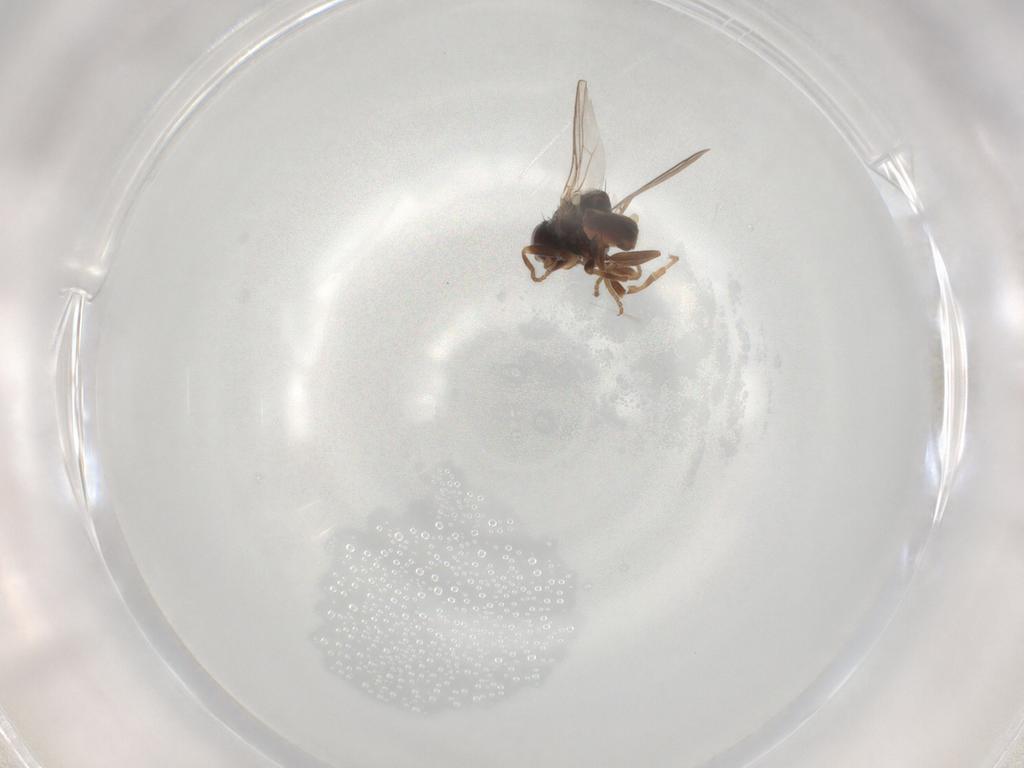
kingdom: Animalia
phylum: Arthropoda
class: Insecta
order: Diptera
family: Chloropidae
